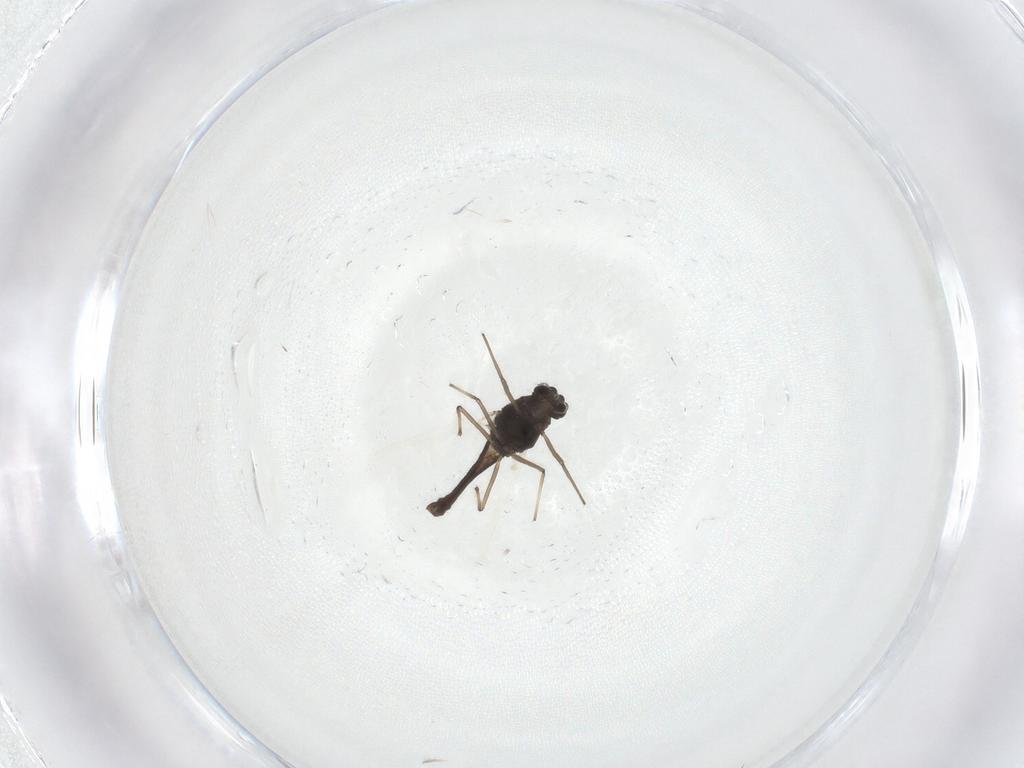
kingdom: Animalia
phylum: Arthropoda
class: Insecta
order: Diptera
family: Chironomidae
